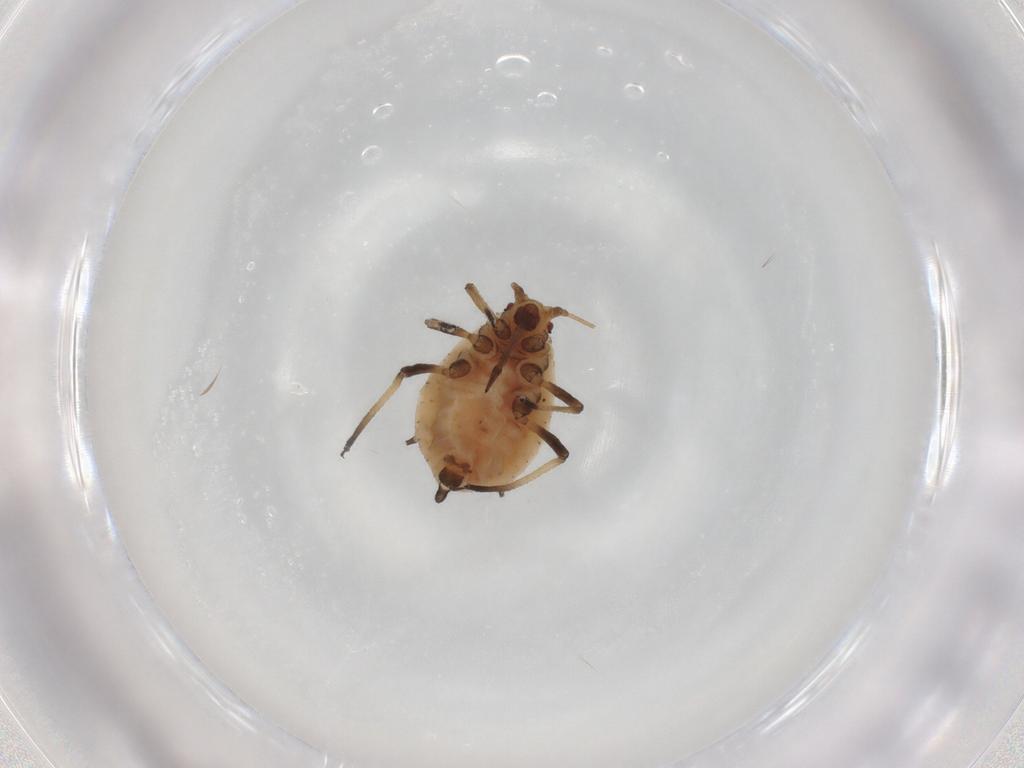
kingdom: Animalia
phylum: Arthropoda
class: Insecta
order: Hemiptera
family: Aphididae
